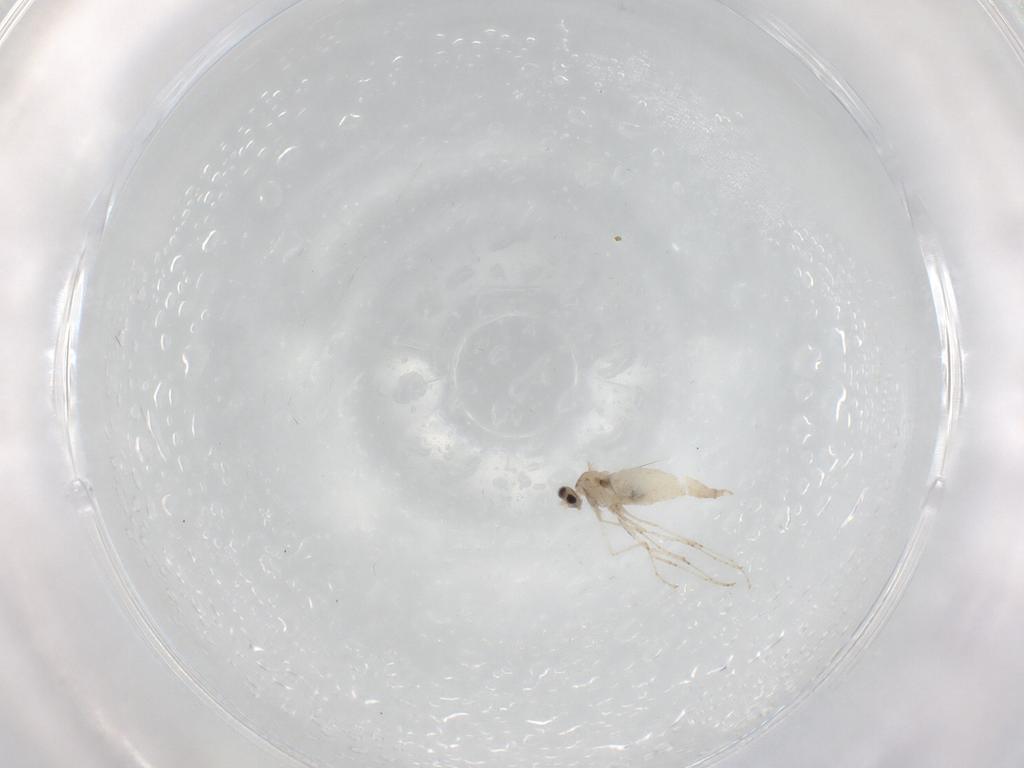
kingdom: Animalia
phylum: Arthropoda
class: Insecta
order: Diptera
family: Cecidomyiidae
